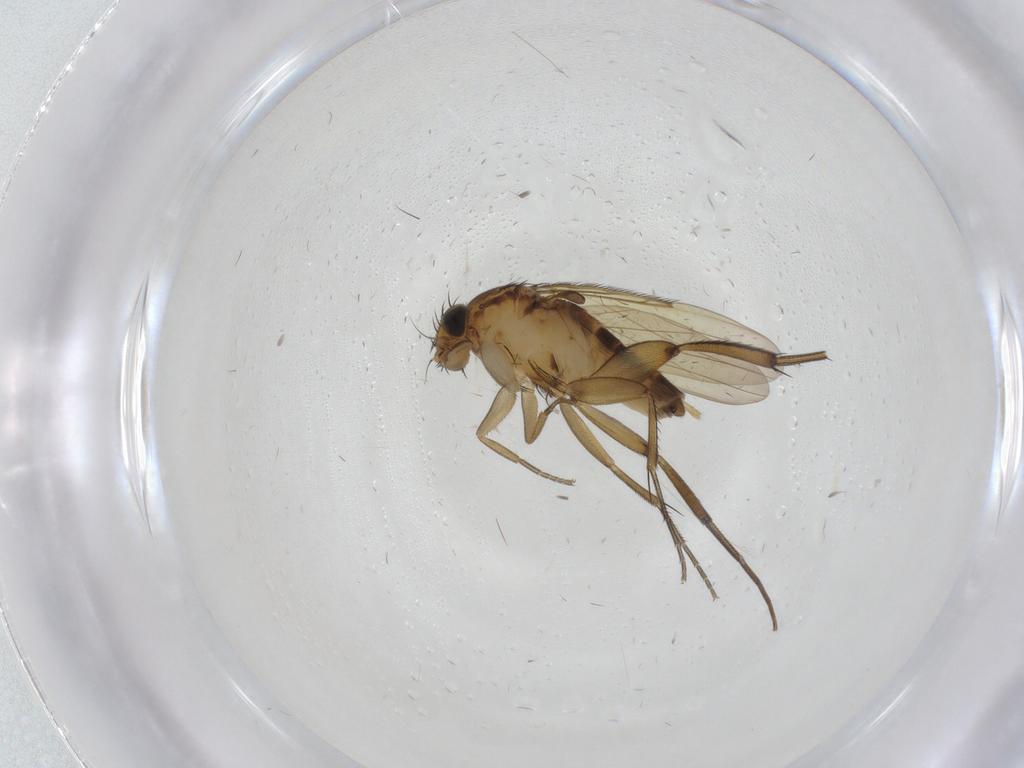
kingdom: Animalia
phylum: Arthropoda
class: Insecta
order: Diptera
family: Phoridae
